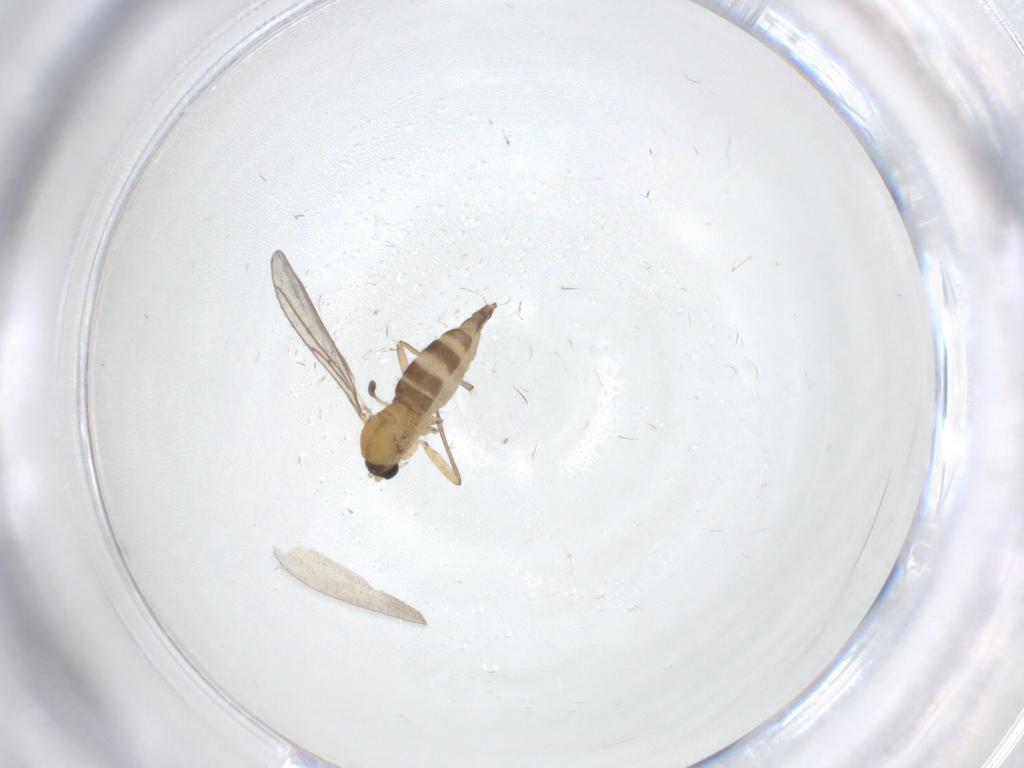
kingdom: Animalia
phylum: Arthropoda
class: Insecta
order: Diptera
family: Sciaridae
